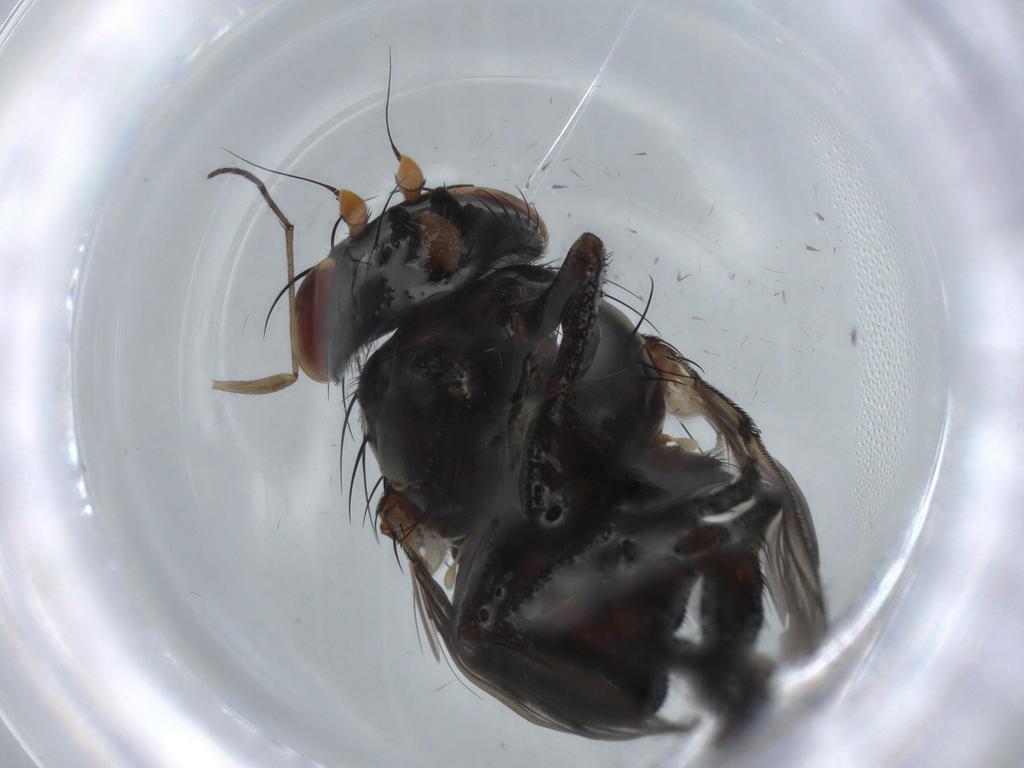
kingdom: Animalia
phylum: Arthropoda
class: Insecta
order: Diptera
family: Sciaridae
